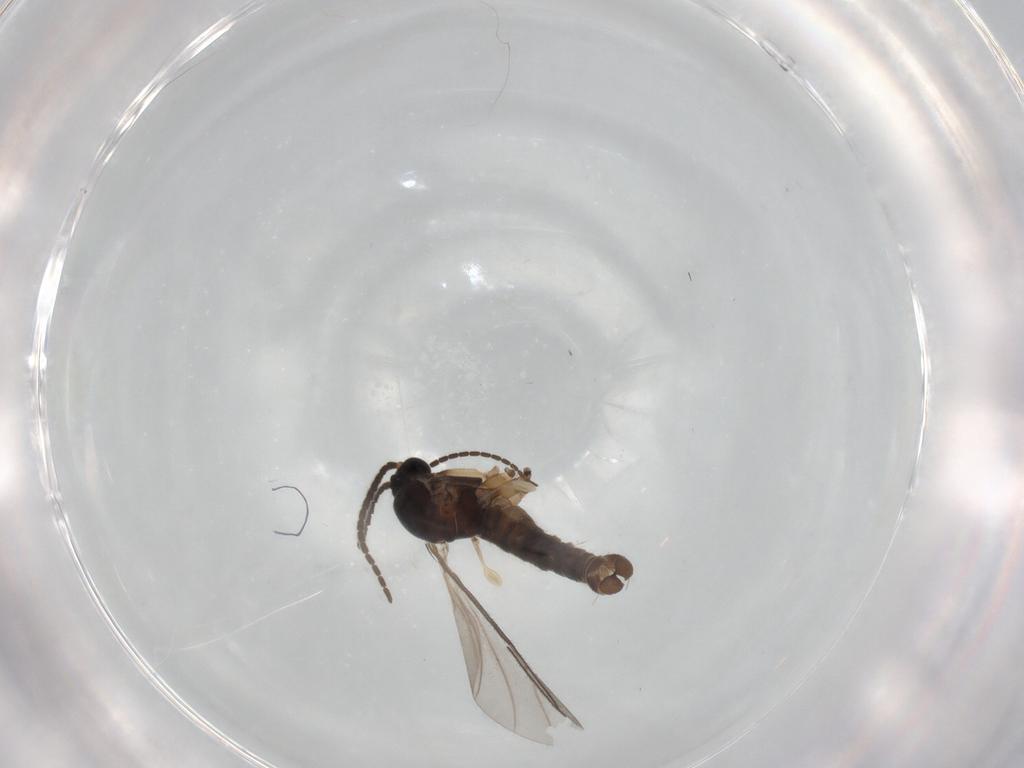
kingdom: Animalia
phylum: Arthropoda
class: Insecta
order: Diptera
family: Sciaridae
